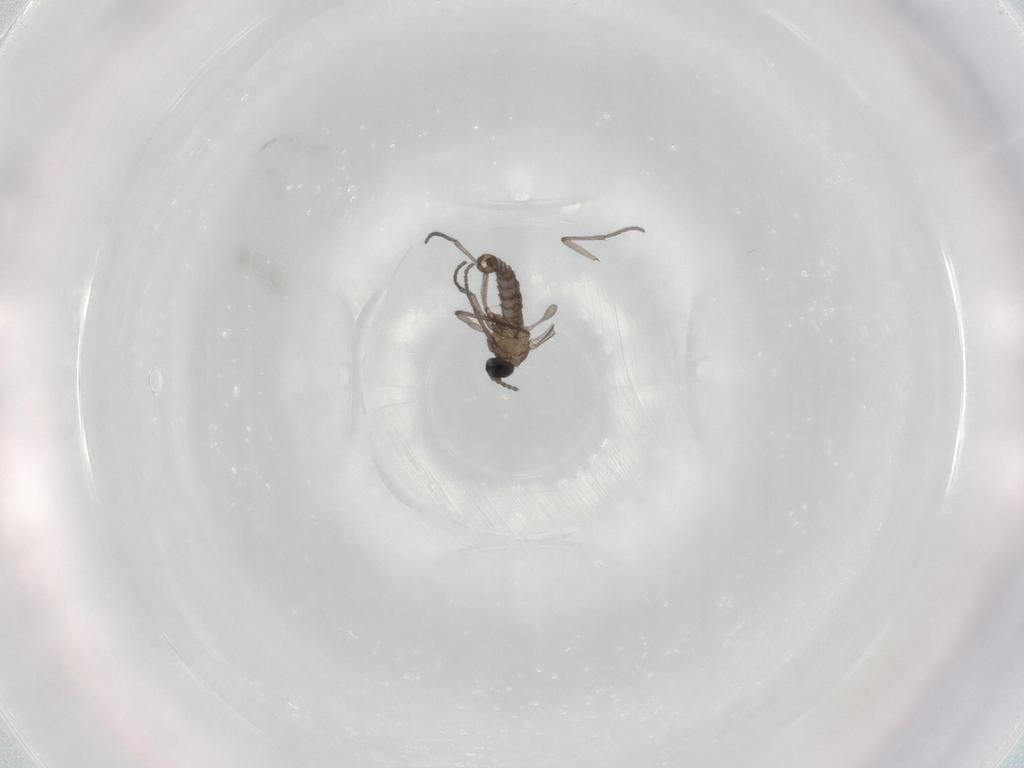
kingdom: Animalia
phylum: Arthropoda
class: Insecta
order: Diptera
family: Sciaridae
